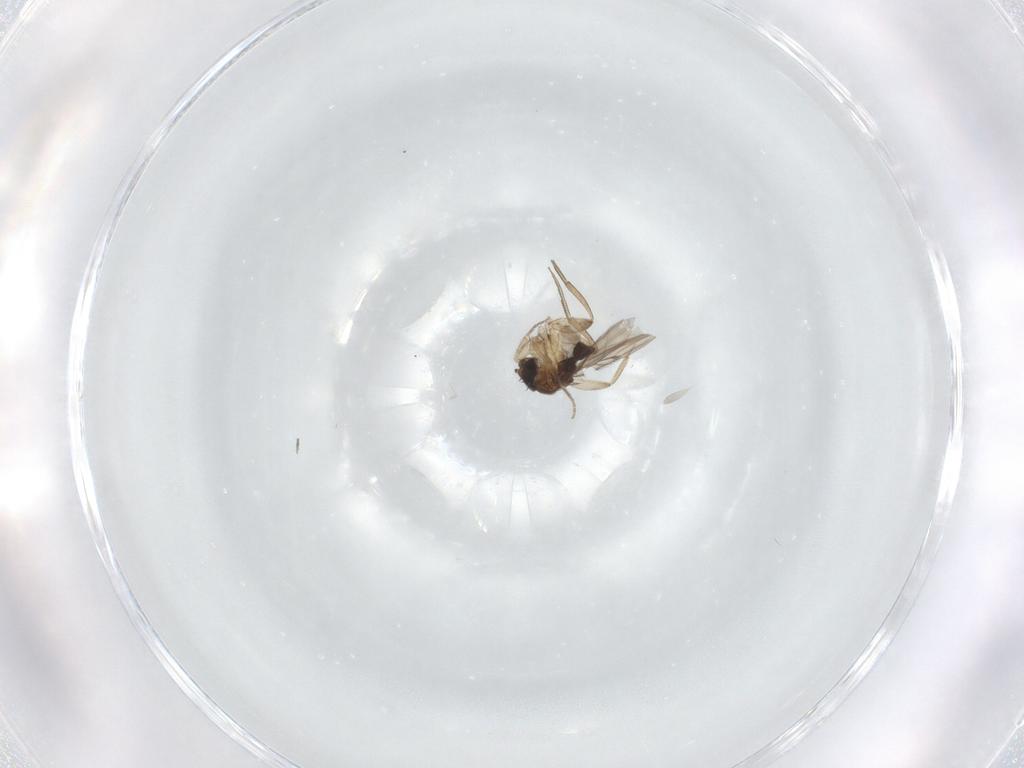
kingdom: Animalia
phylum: Arthropoda
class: Insecta
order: Diptera
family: Phoridae
